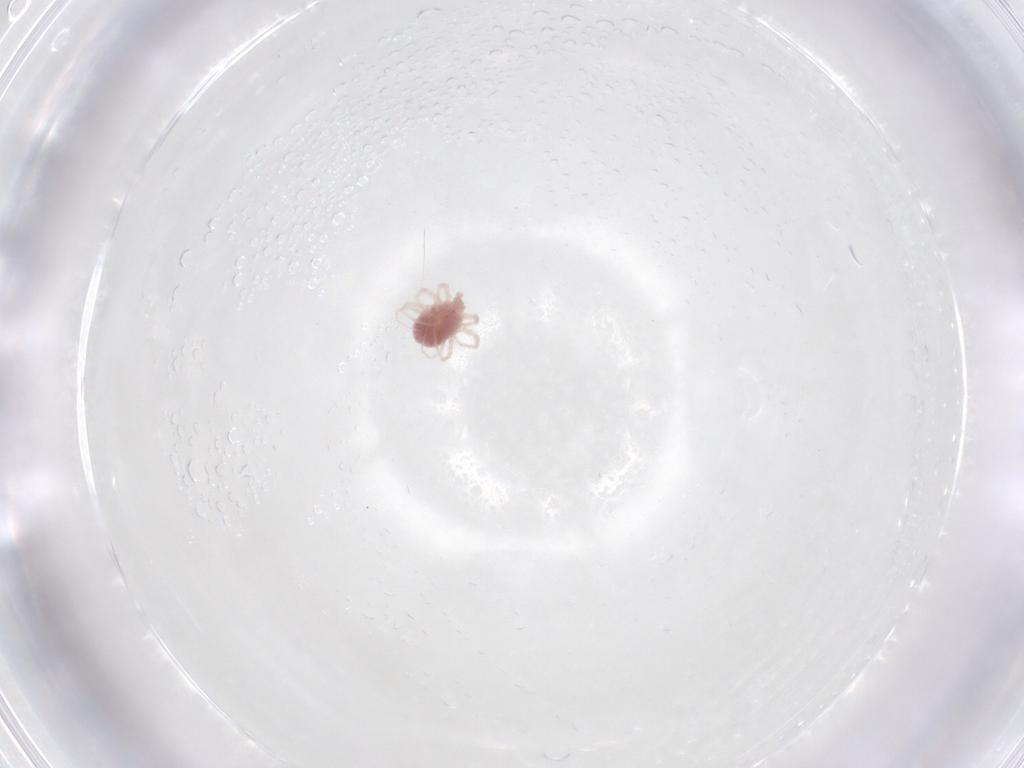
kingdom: Animalia
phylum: Arthropoda
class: Arachnida
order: Trombidiformes
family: Anystidae
